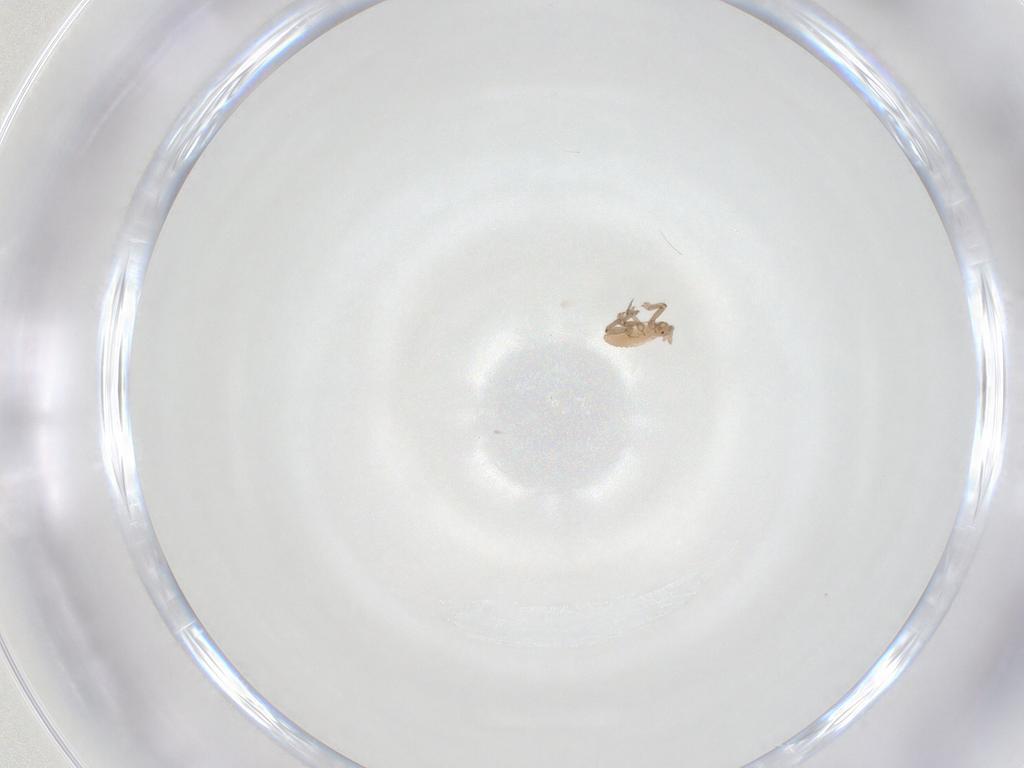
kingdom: Animalia
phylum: Arthropoda
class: Insecta
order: Hemiptera
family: Aphididae
